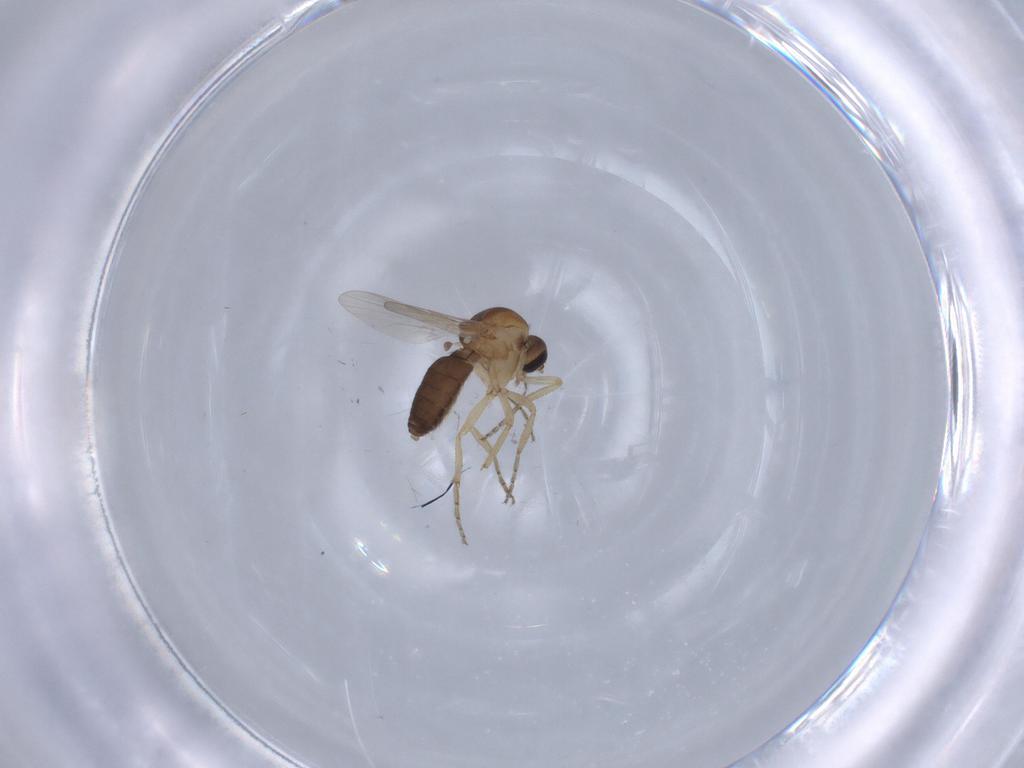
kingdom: Animalia
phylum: Arthropoda
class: Insecta
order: Diptera
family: Ceratopogonidae
